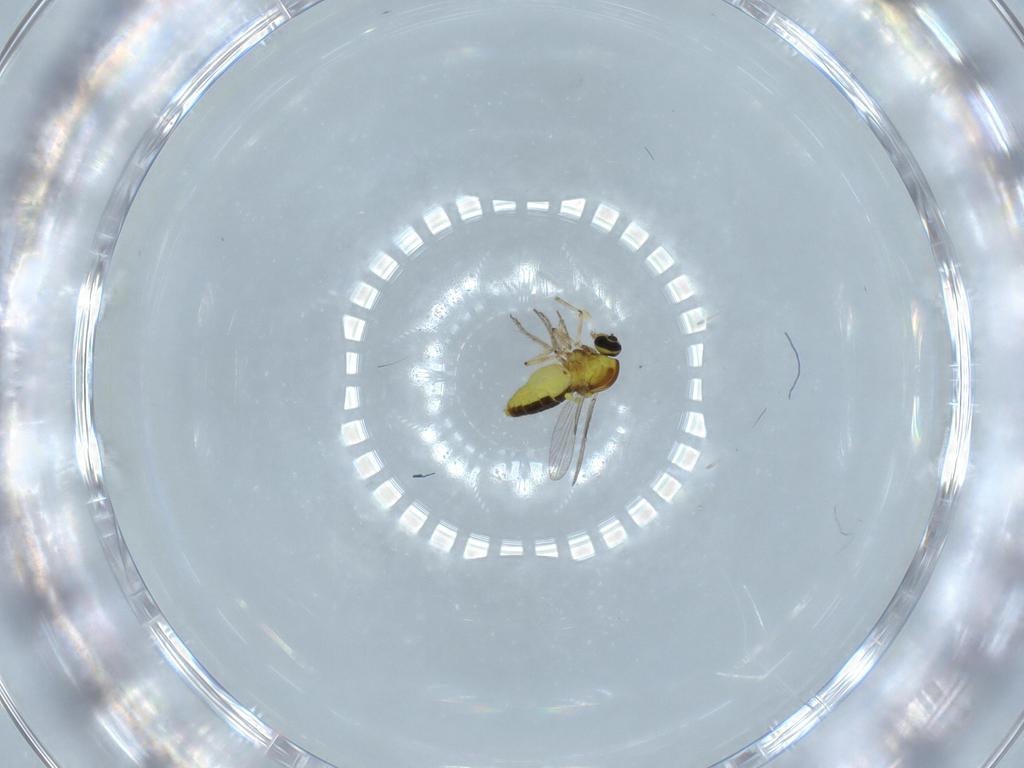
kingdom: Animalia
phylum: Arthropoda
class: Insecta
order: Diptera
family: Ceratopogonidae
